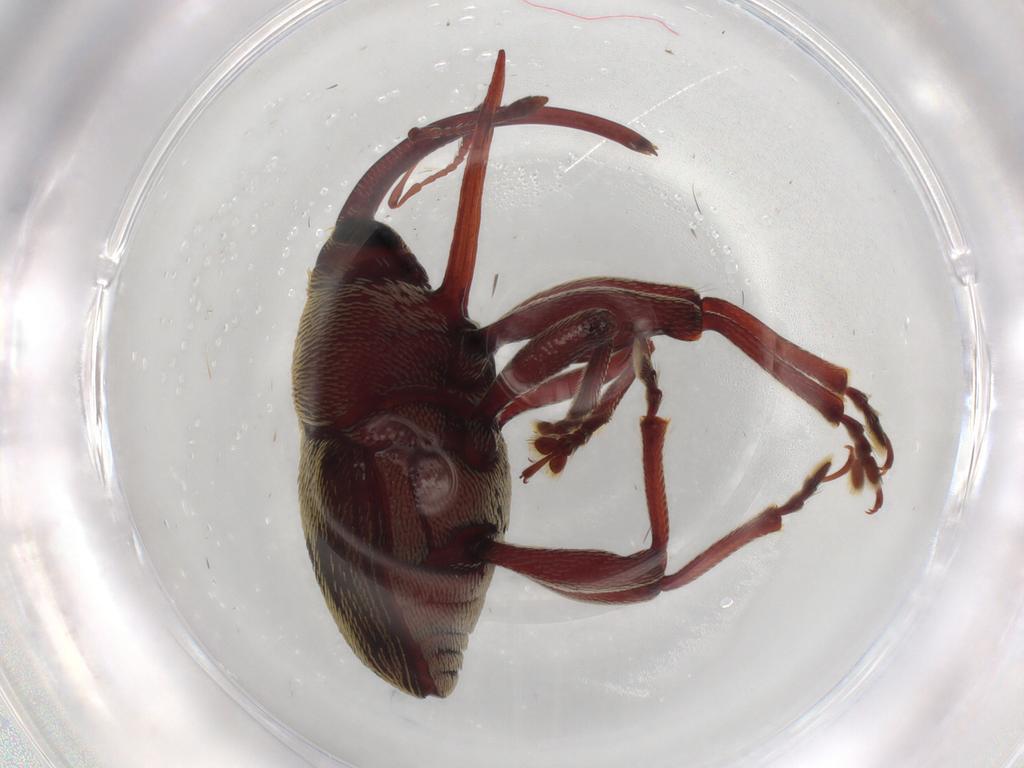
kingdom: Animalia
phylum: Arthropoda
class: Insecta
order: Coleoptera
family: Curculionidae
